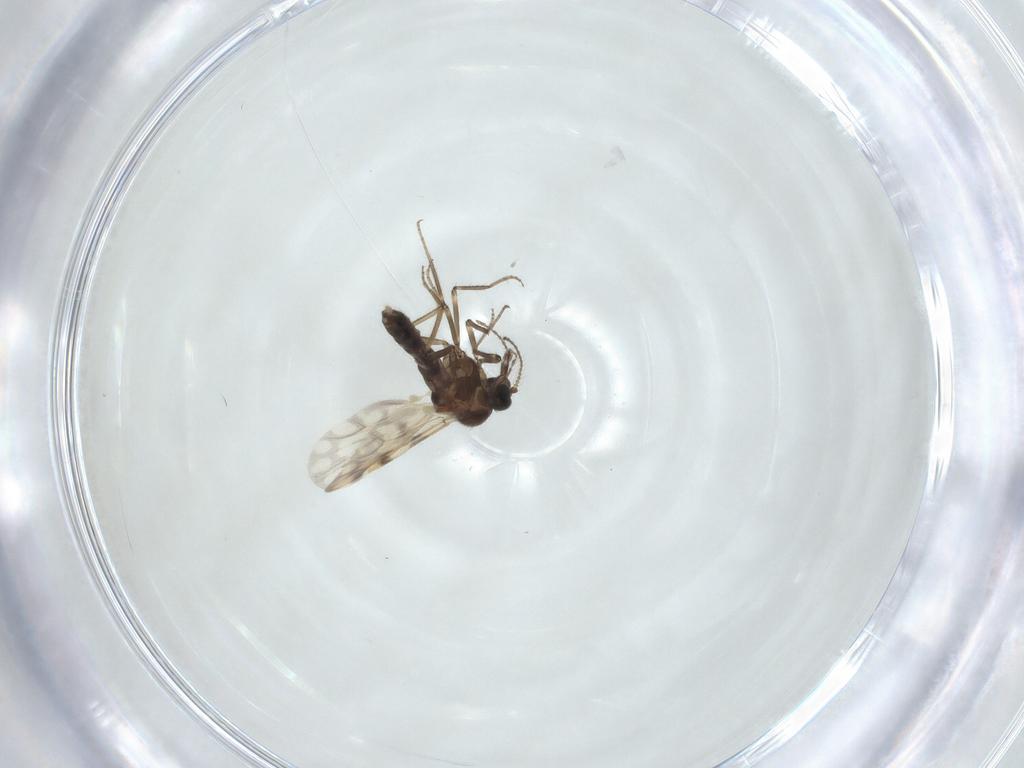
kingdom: Animalia
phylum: Arthropoda
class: Insecta
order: Diptera
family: Ceratopogonidae
